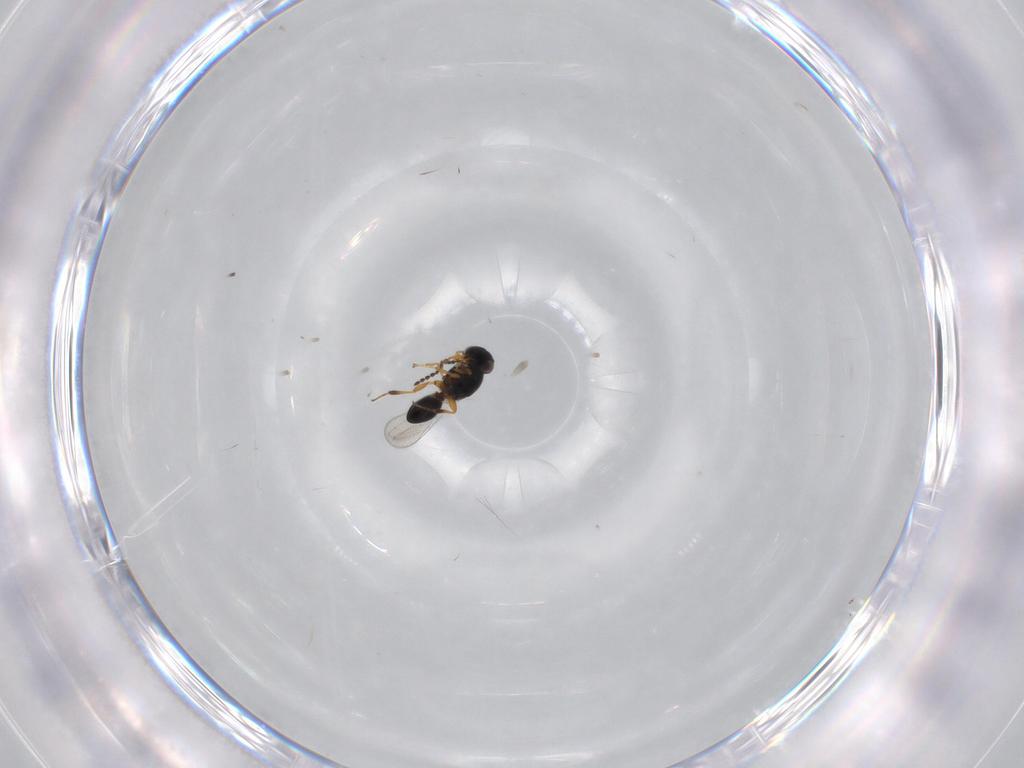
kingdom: Animalia
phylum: Arthropoda
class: Insecta
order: Hymenoptera
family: Platygastridae
